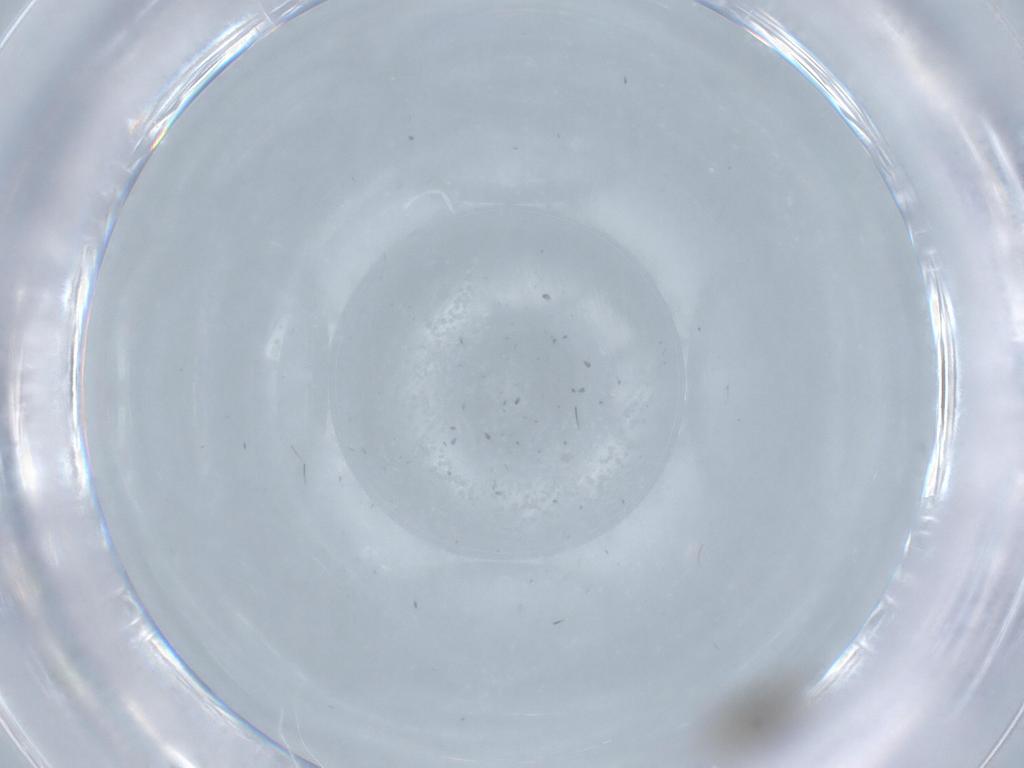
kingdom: Animalia
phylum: Arthropoda
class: Insecta
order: Diptera
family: Psychodidae
